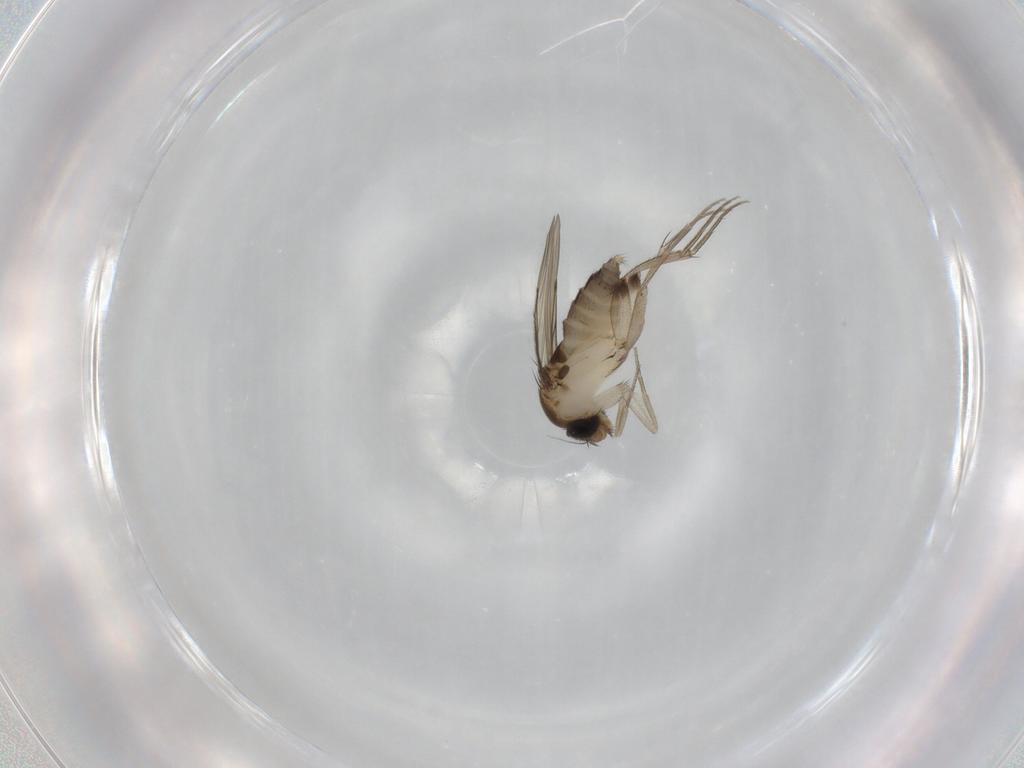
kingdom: Animalia
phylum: Arthropoda
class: Insecta
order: Diptera
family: Phoridae
